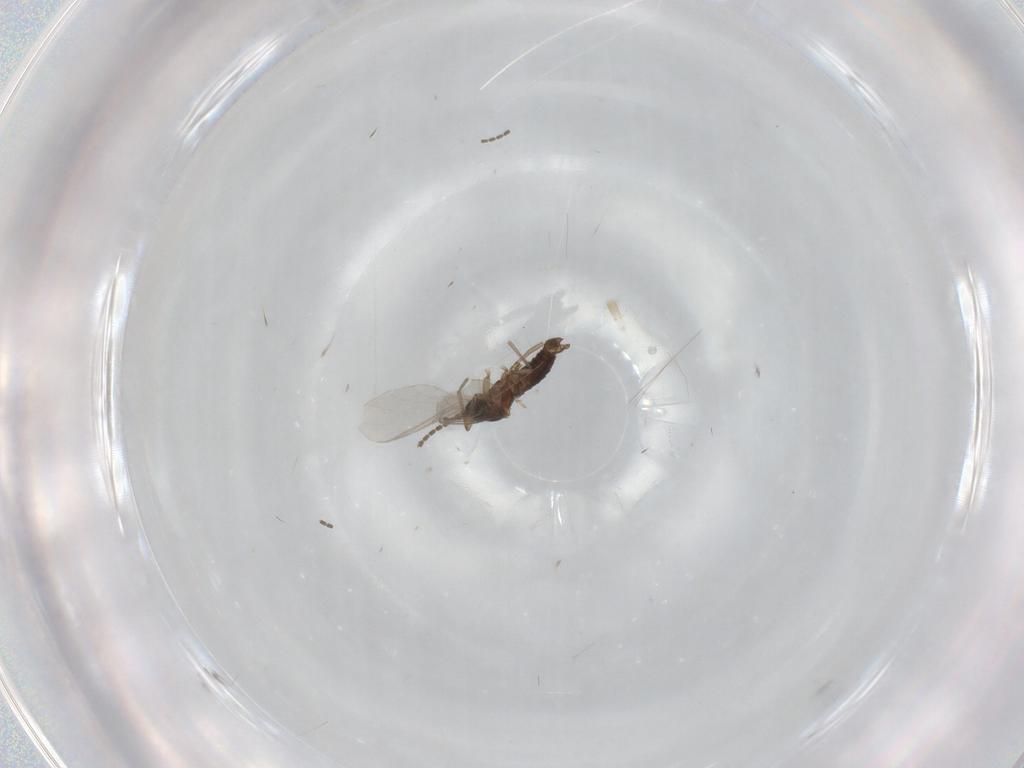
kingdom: Animalia
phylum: Arthropoda
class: Insecta
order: Diptera
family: Sciaridae
